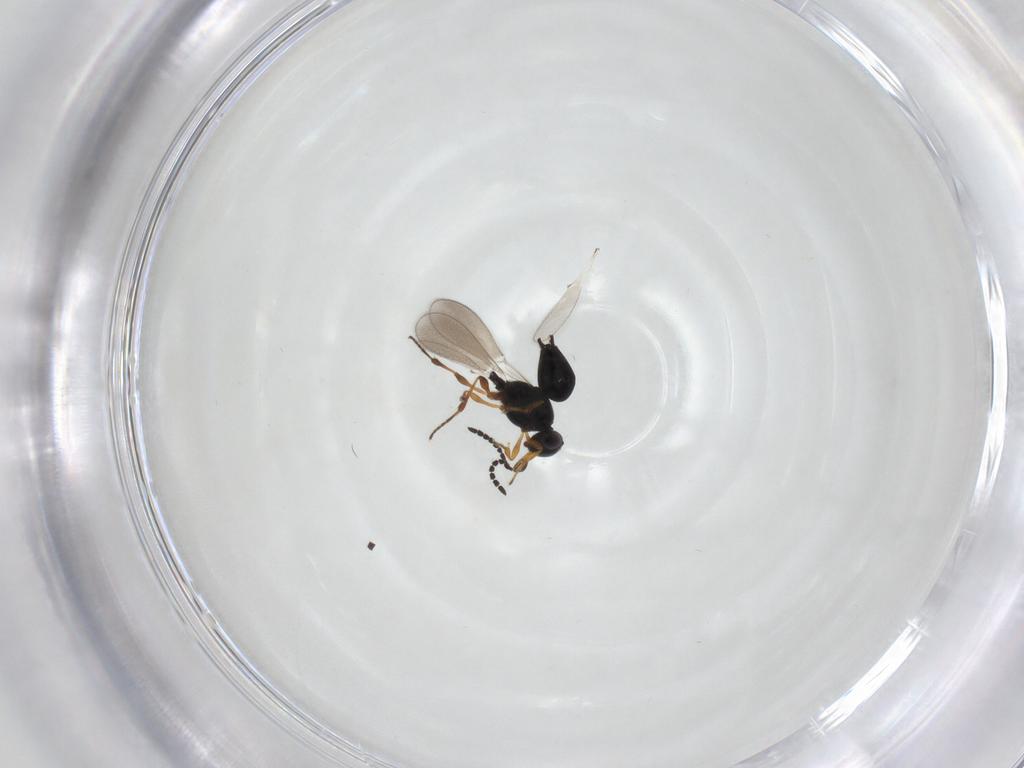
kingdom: Animalia
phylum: Arthropoda
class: Insecta
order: Hymenoptera
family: Platygastridae
